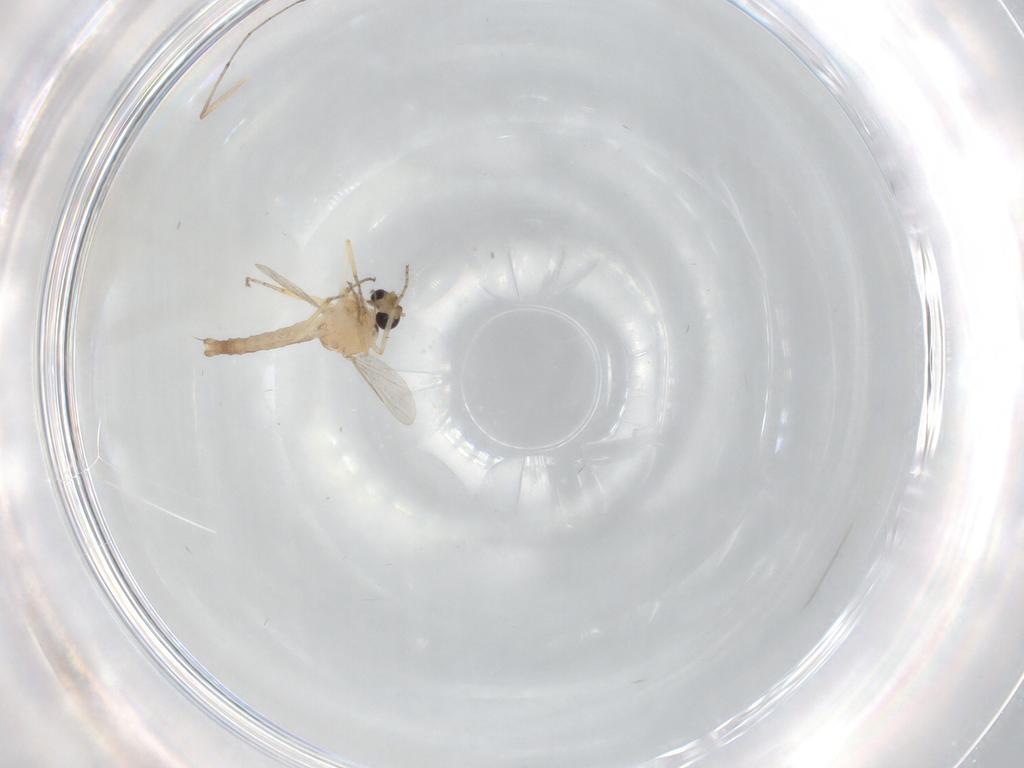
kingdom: Animalia
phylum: Arthropoda
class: Insecta
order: Diptera
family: Ceratopogonidae
